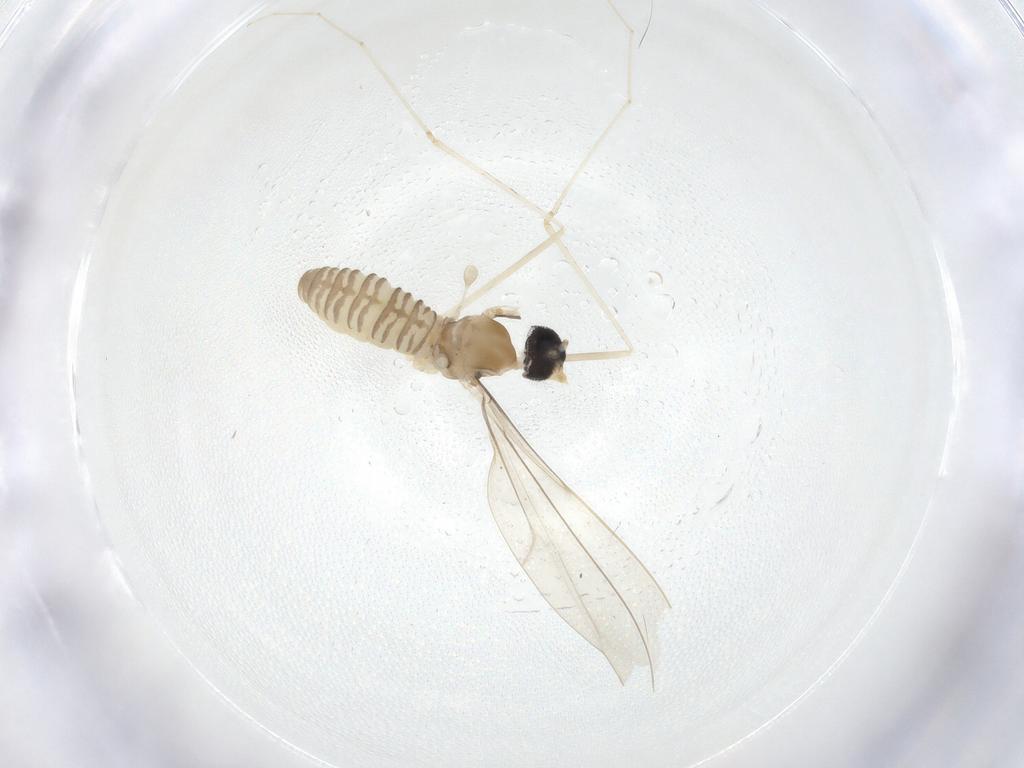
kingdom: Animalia
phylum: Arthropoda
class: Insecta
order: Diptera
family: Cecidomyiidae
